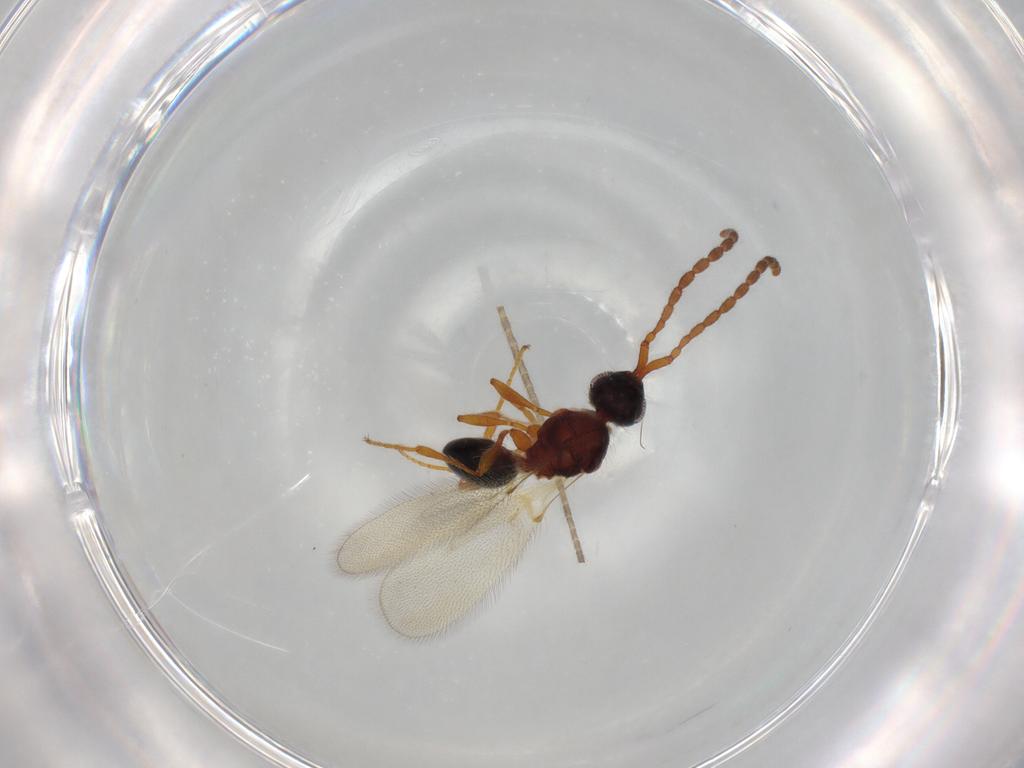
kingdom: Animalia
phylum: Arthropoda
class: Insecta
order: Hymenoptera
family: Diapriidae
